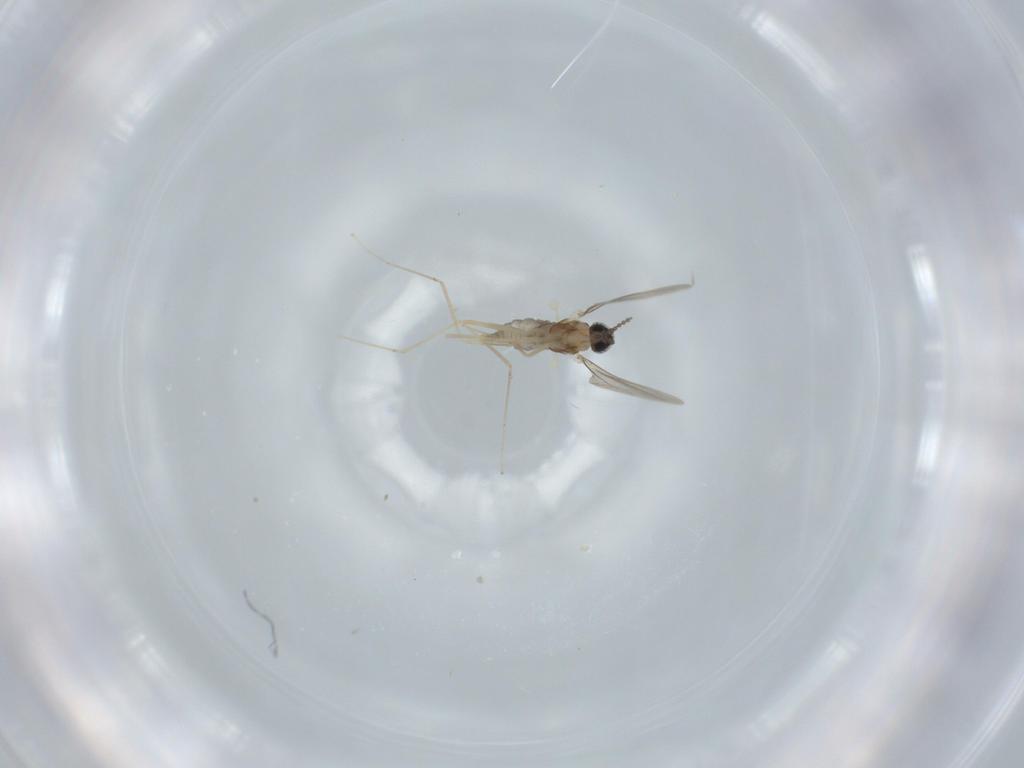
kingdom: Animalia
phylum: Arthropoda
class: Insecta
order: Diptera
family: Cecidomyiidae
